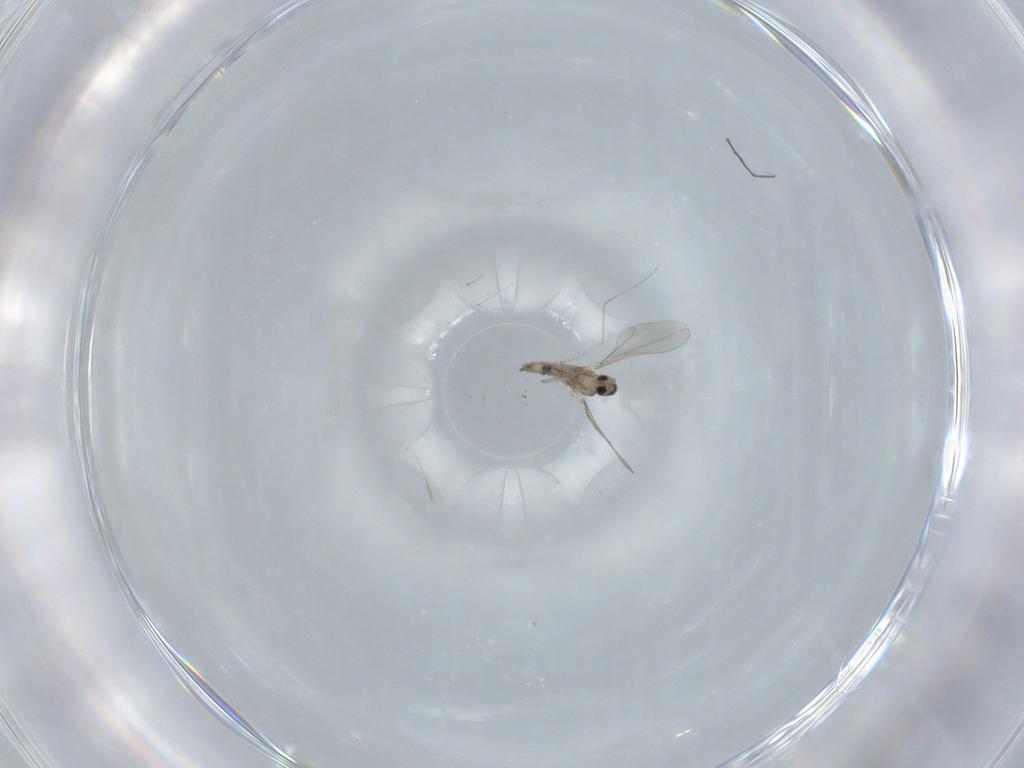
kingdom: Animalia
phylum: Arthropoda
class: Insecta
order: Diptera
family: Cecidomyiidae
